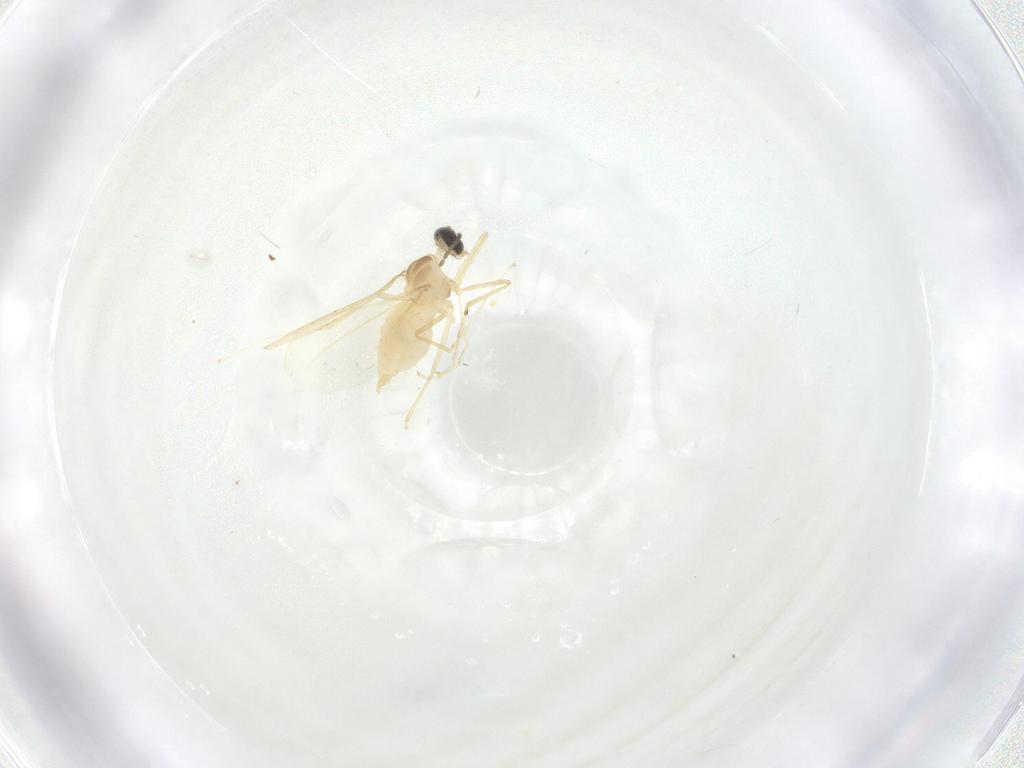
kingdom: Animalia
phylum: Arthropoda
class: Insecta
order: Diptera
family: Cecidomyiidae
